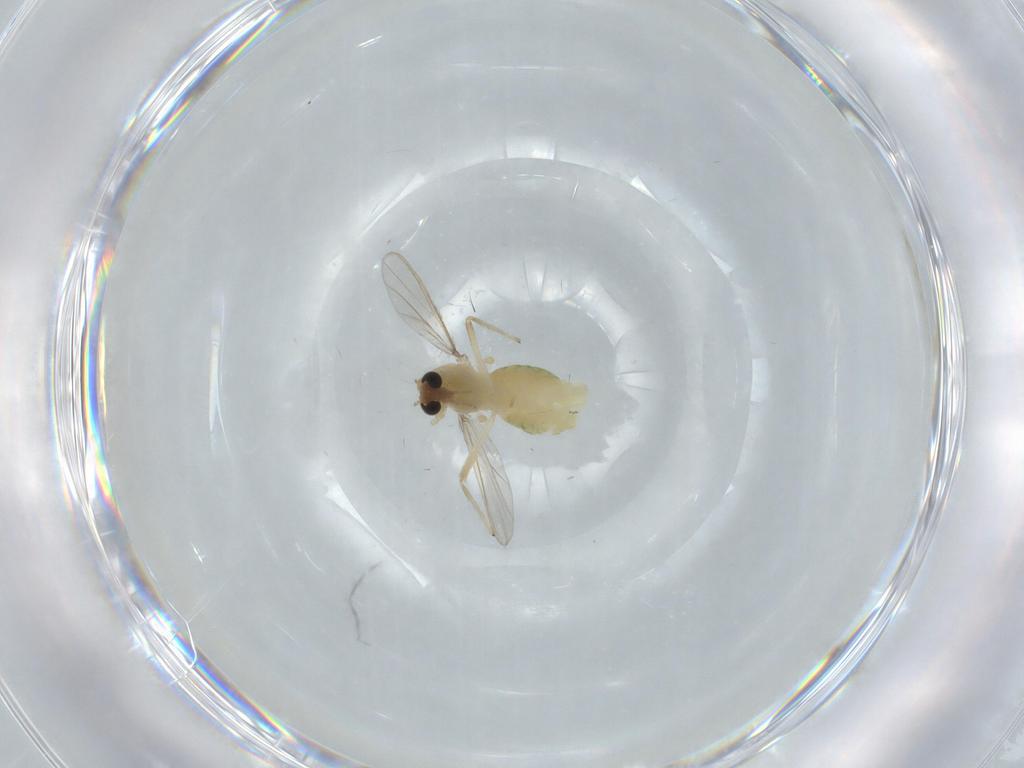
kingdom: Animalia
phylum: Arthropoda
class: Insecta
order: Diptera
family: Chironomidae
